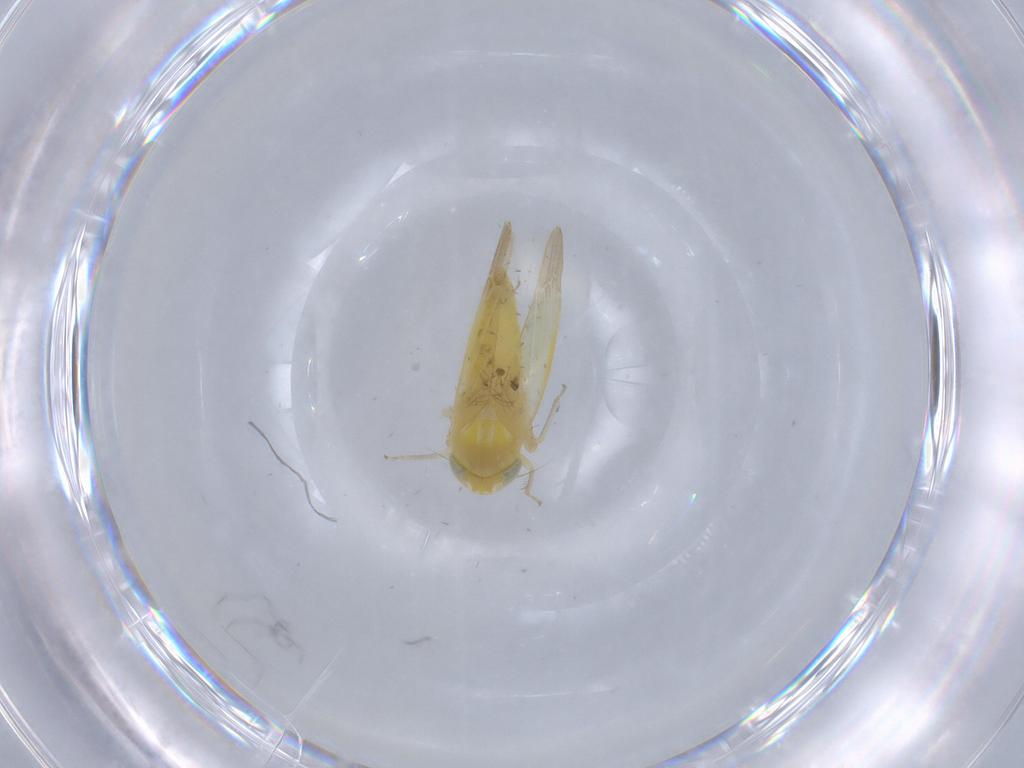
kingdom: Animalia
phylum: Arthropoda
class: Insecta
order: Hemiptera
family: Cicadellidae
